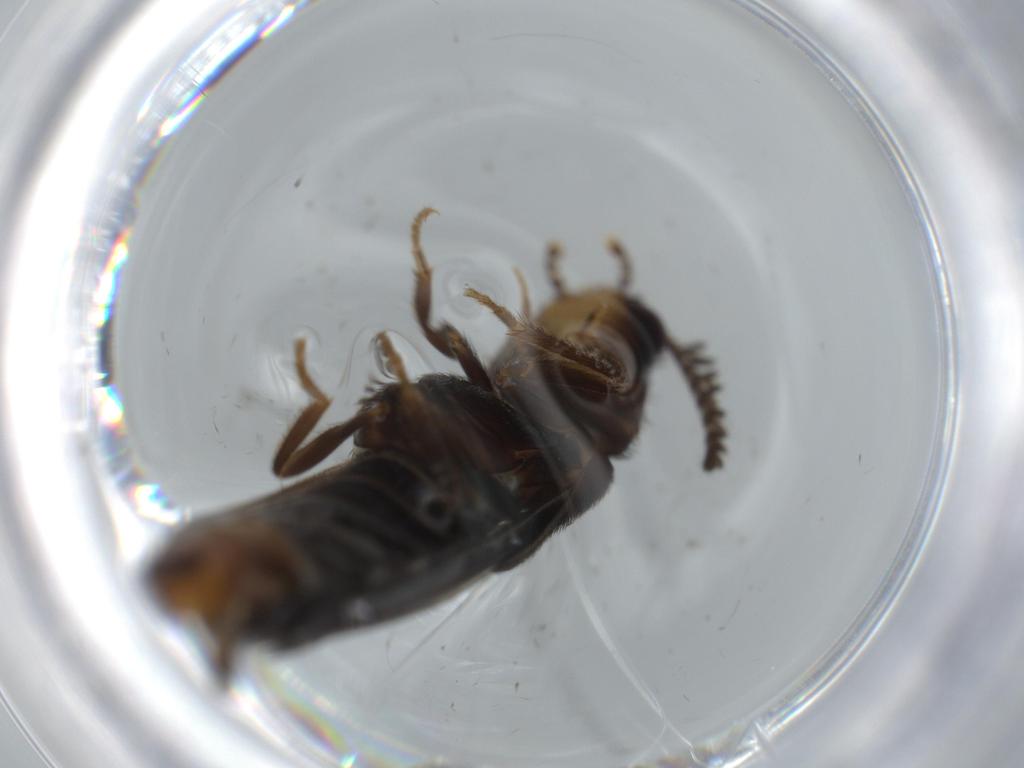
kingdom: Animalia
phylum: Arthropoda
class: Insecta
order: Coleoptera
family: Phengodidae
